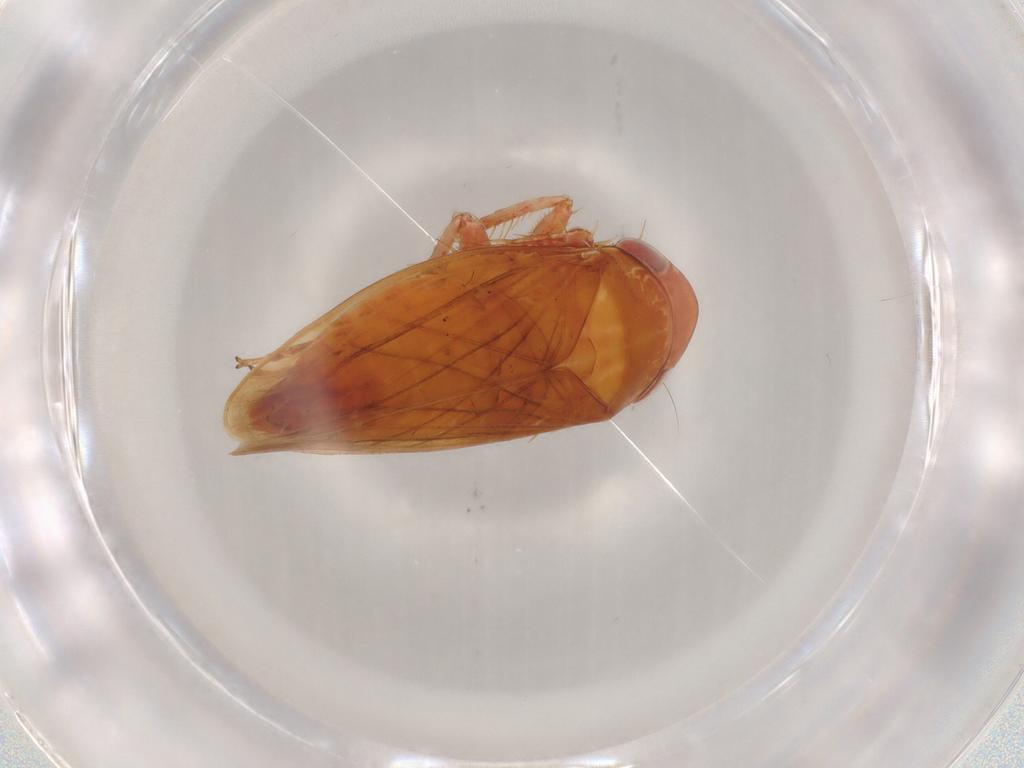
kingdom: Animalia
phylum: Arthropoda
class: Insecta
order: Hemiptera
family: Cicadellidae
